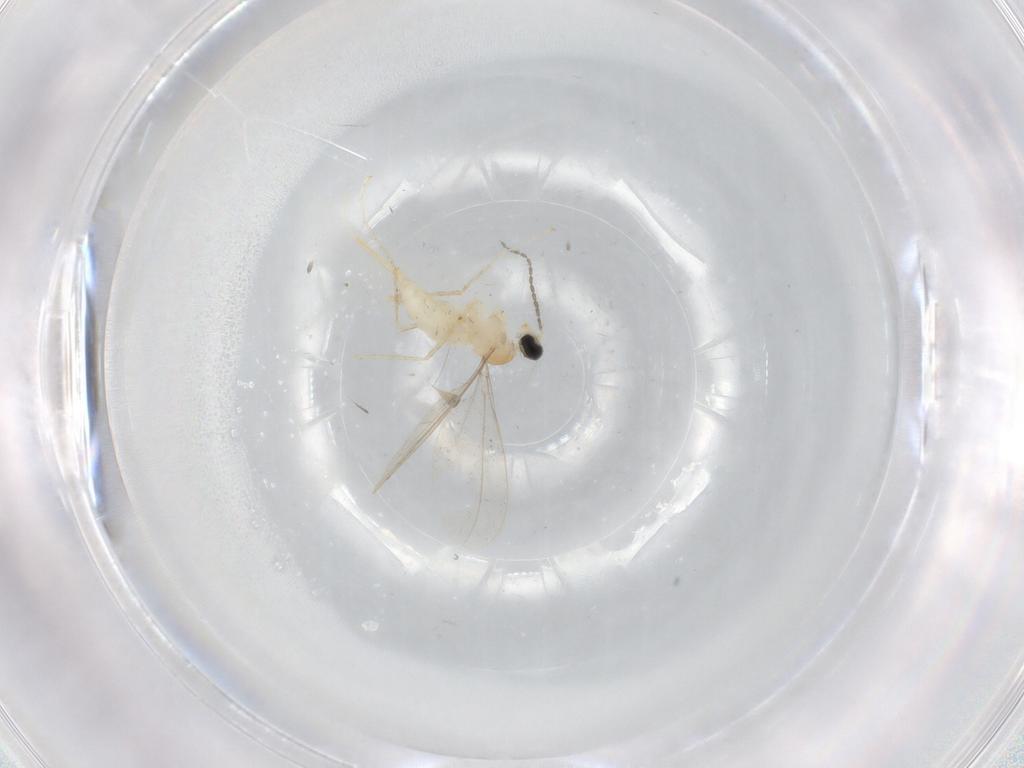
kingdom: Animalia
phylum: Arthropoda
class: Insecta
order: Diptera
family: Cecidomyiidae
